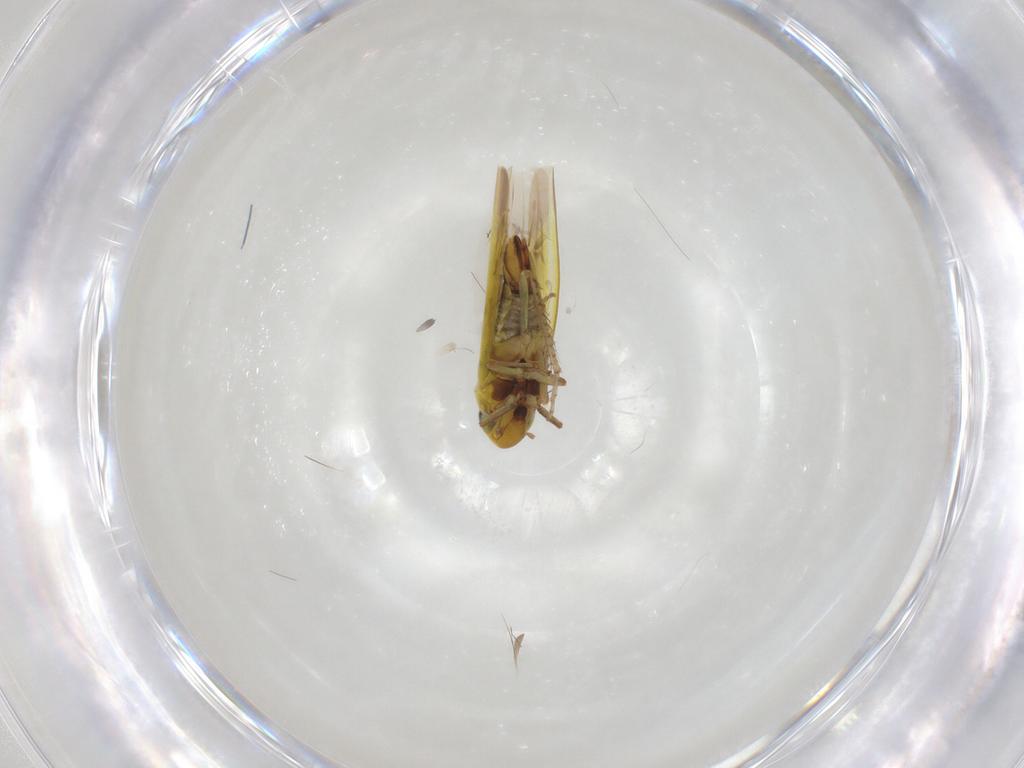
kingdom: Animalia
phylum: Arthropoda
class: Insecta
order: Hemiptera
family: Cicadellidae
